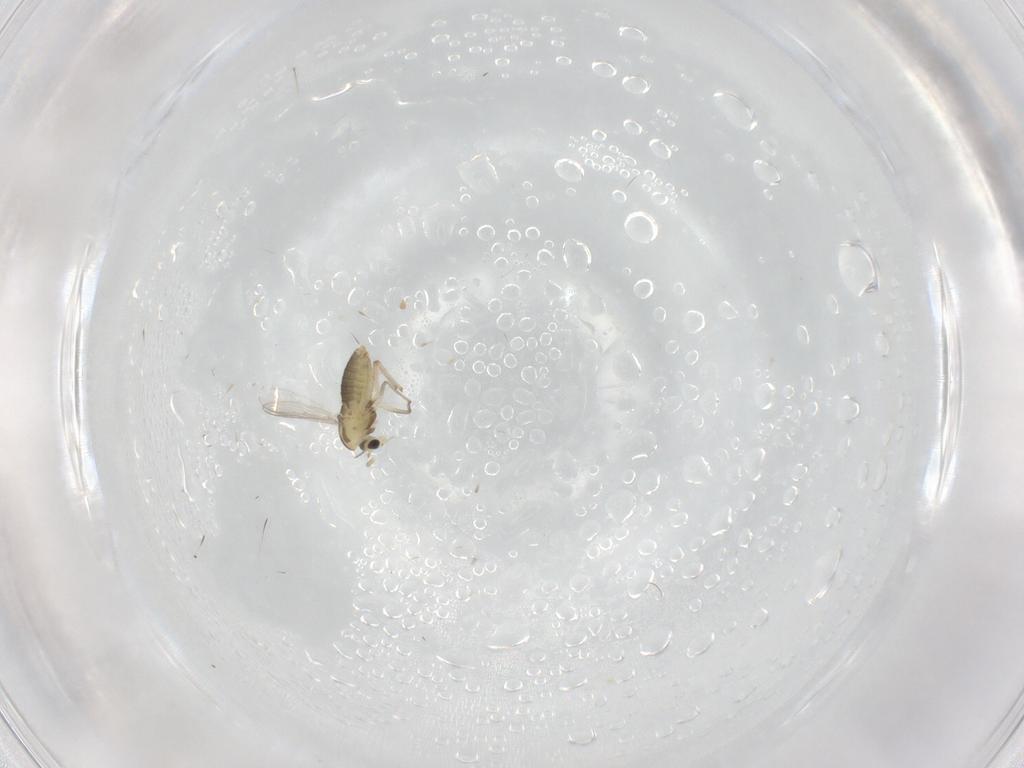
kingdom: Animalia
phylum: Arthropoda
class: Insecta
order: Diptera
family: Chironomidae
